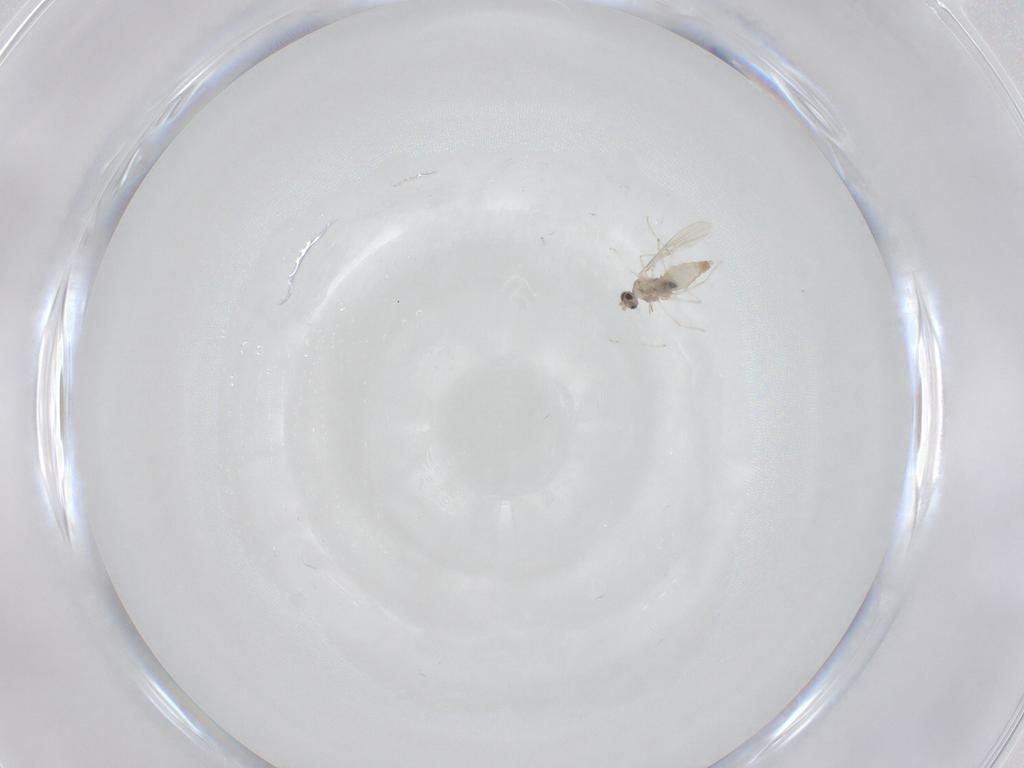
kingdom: Animalia
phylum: Arthropoda
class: Insecta
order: Diptera
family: Cecidomyiidae
